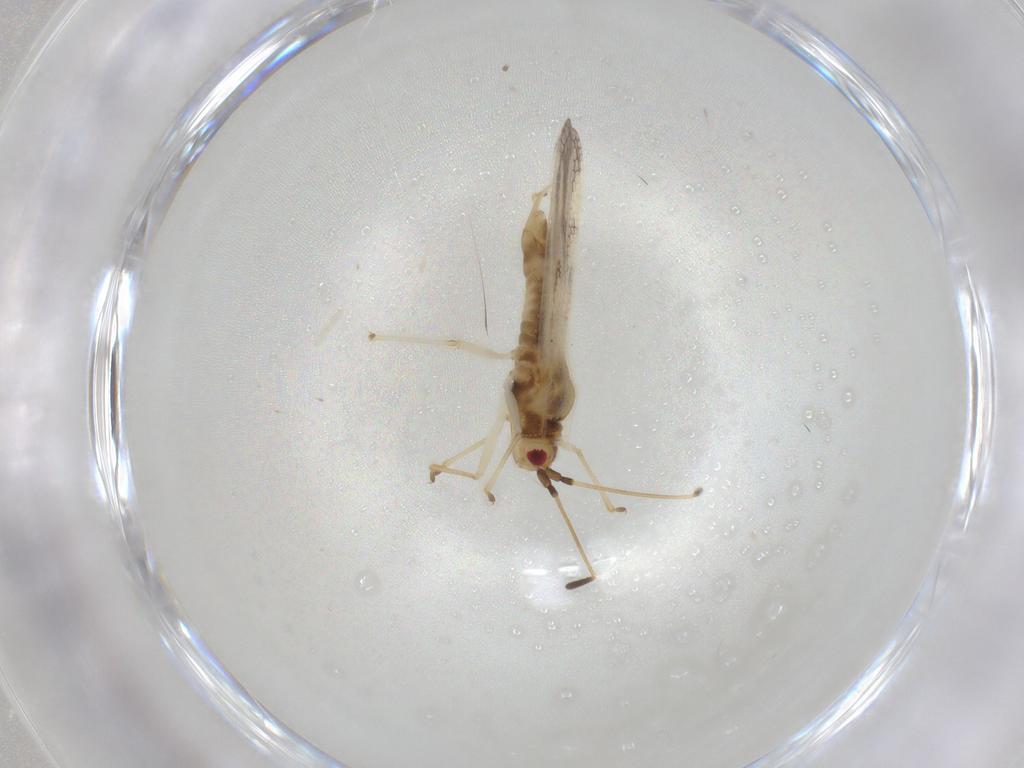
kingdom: Animalia
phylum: Arthropoda
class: Insecta
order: Hemiptera
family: Tingidae
